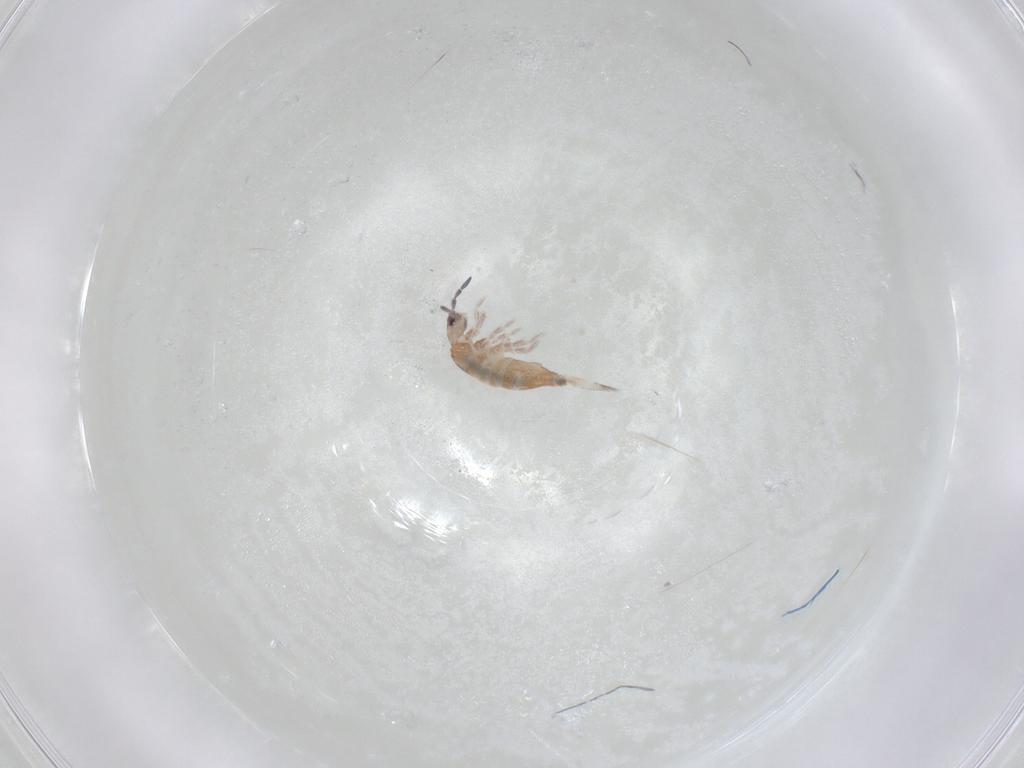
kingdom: Animalia
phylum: Arthropoda
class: Collembola
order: Entomobryomorpha
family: Entomobryidae
